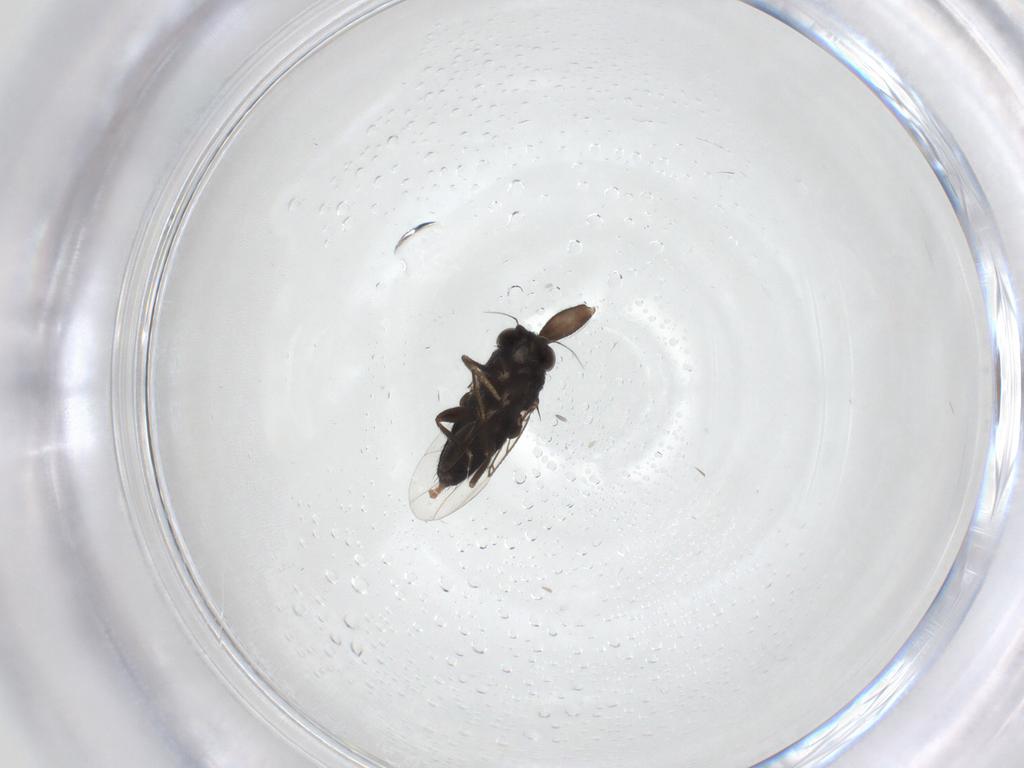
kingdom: Animalia
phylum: Arthropoda
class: Insecta
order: Diptera
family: Phoridae
